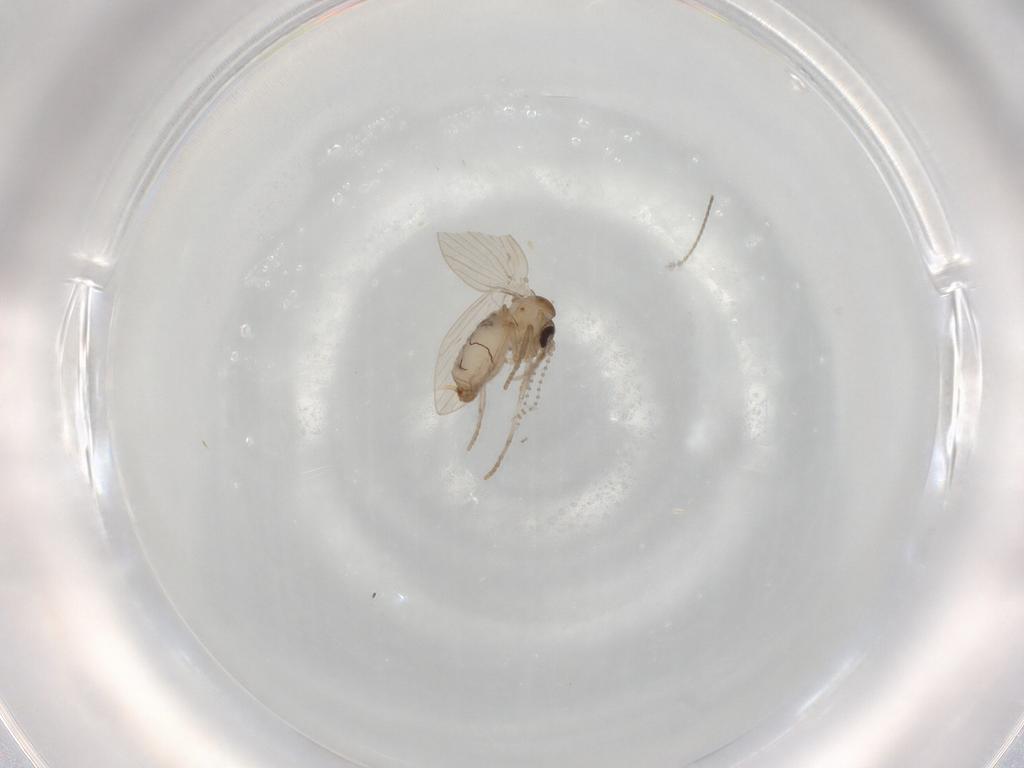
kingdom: Animalia
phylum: Arthropoda
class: Insecta
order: Diptera
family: Psychodidae
